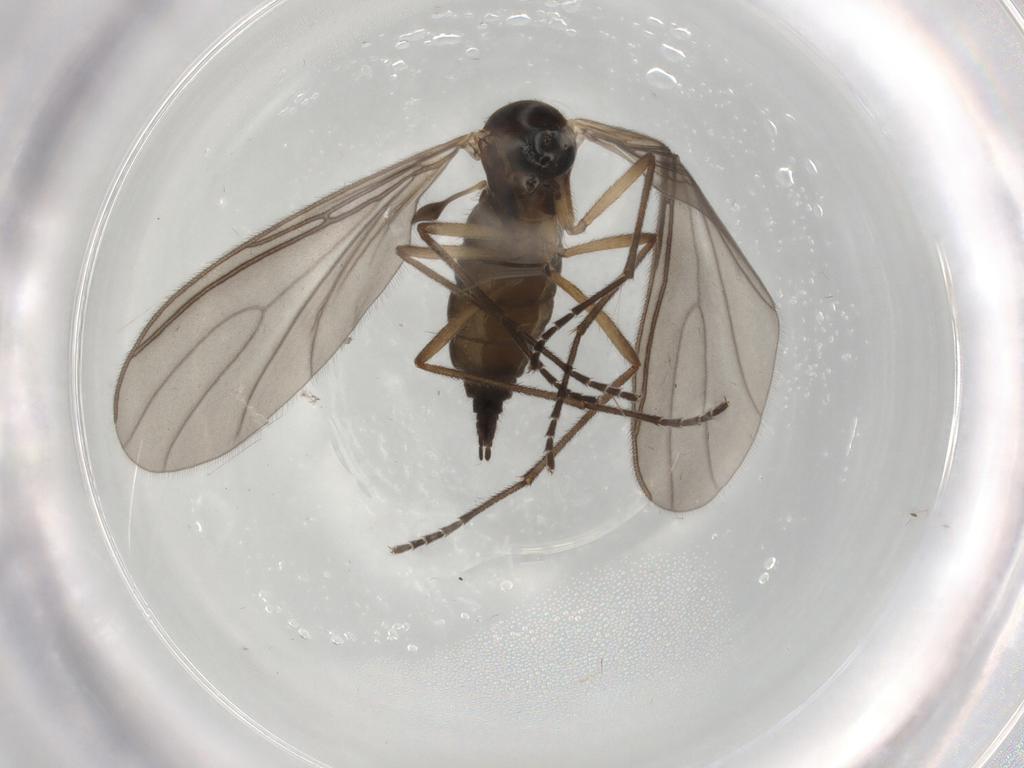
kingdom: Animalia
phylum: Arthropoda
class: Insecta
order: Diptera
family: Sciaridae
